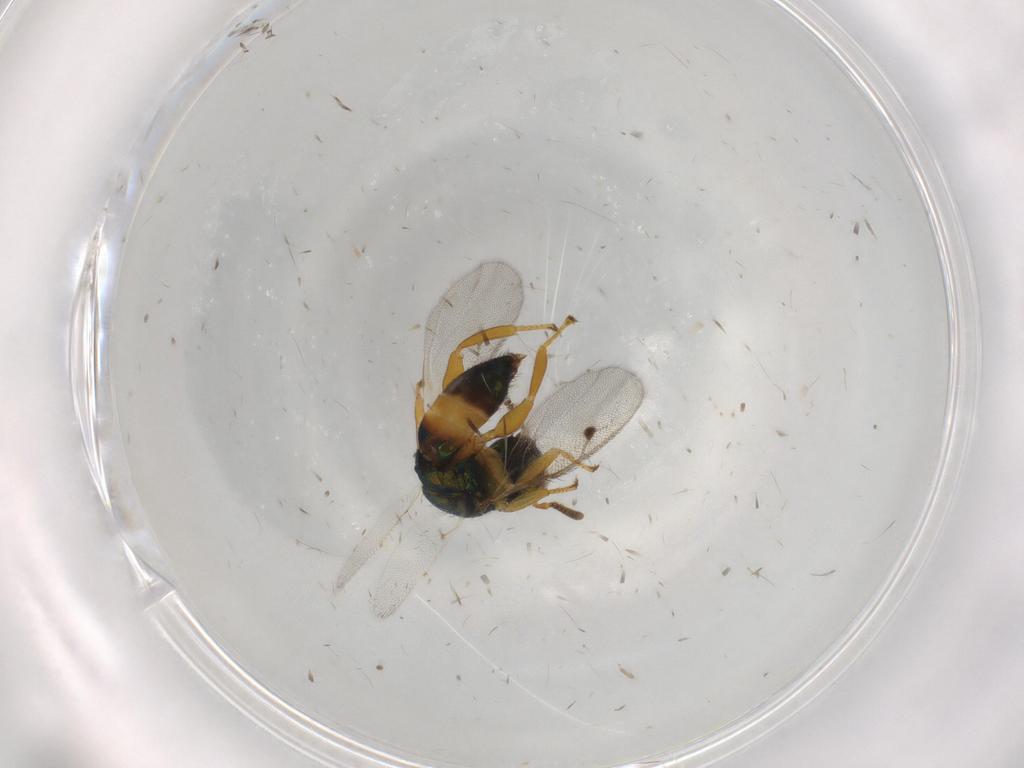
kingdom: Animalia
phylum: Arthropoda
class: Insecta
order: Hymenoptera
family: Pteromalidae
